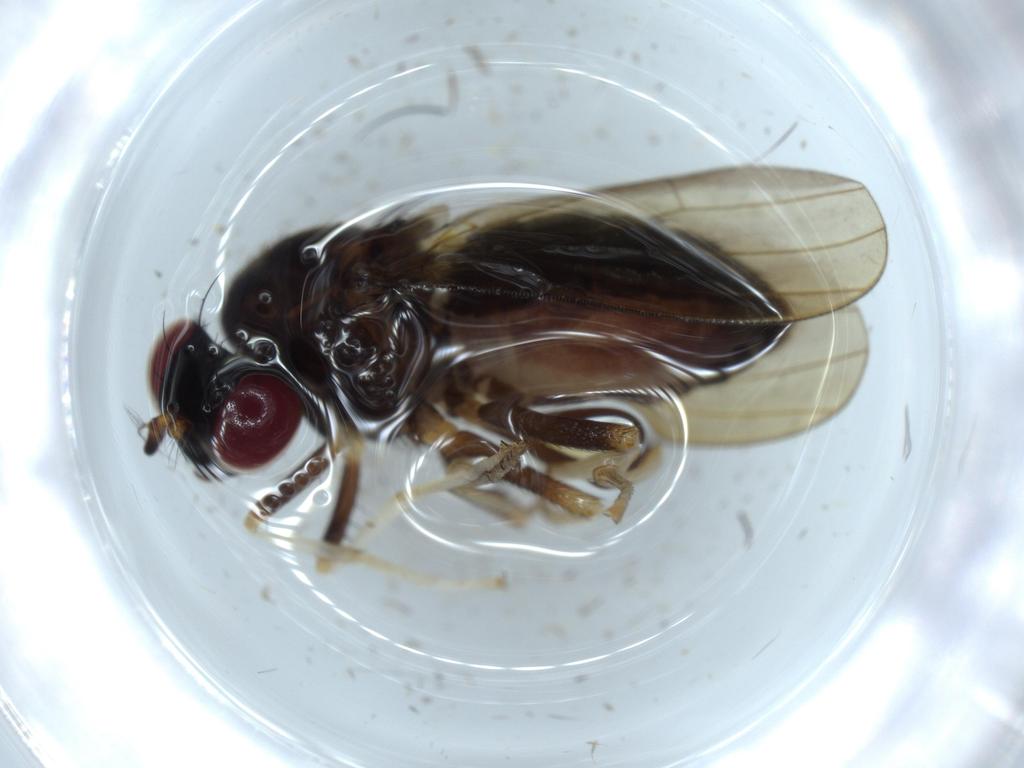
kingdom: Animalia
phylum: Arthropoda
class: Insecta
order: Diptera
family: Chironomidae
